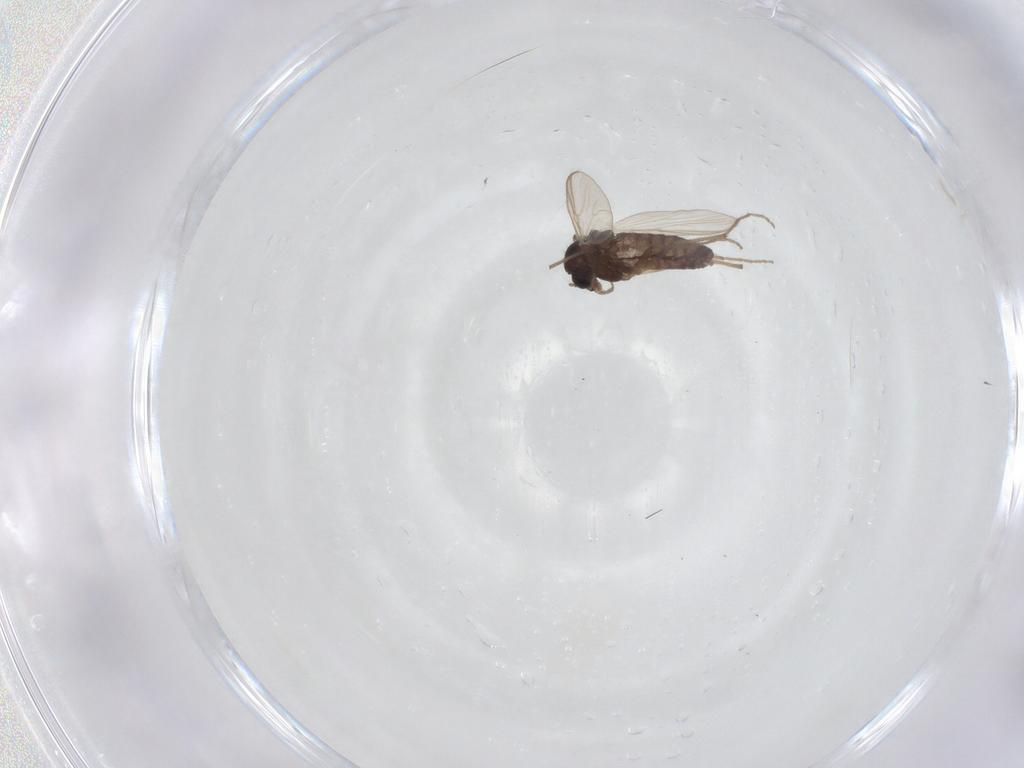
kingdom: Animalia
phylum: Arthropoda
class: Insecta
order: Diptera
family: Chironomidae
